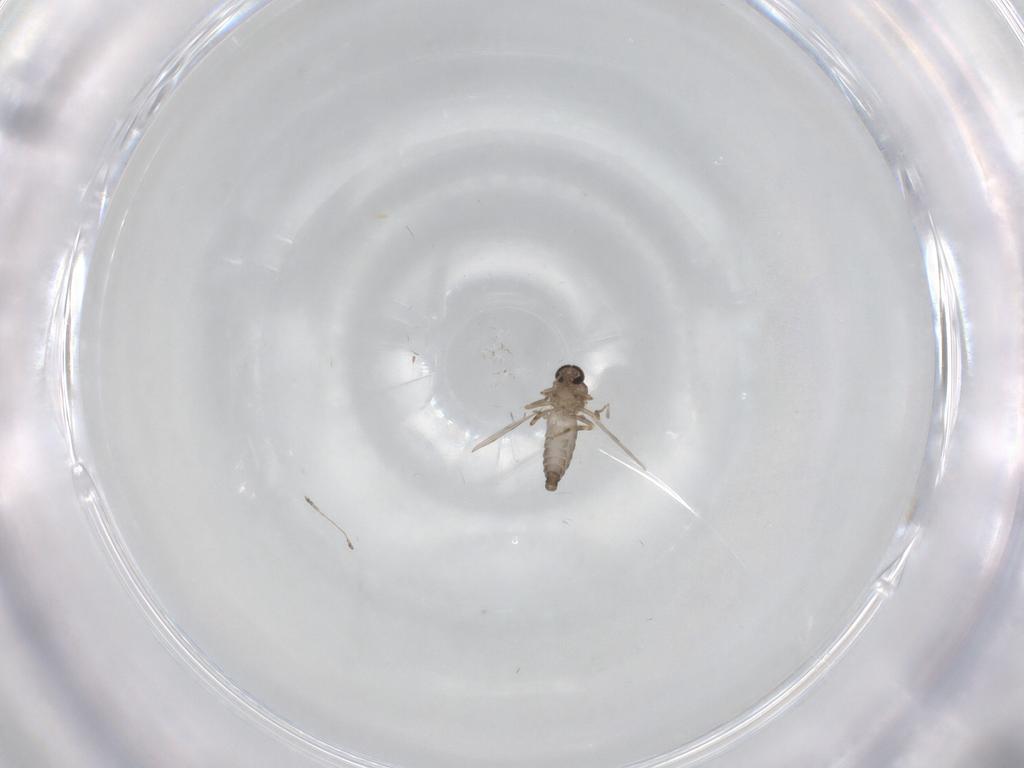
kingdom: Animalia
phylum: Arthropoda
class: Insecta
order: Diptera
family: Ceratopogonidae
